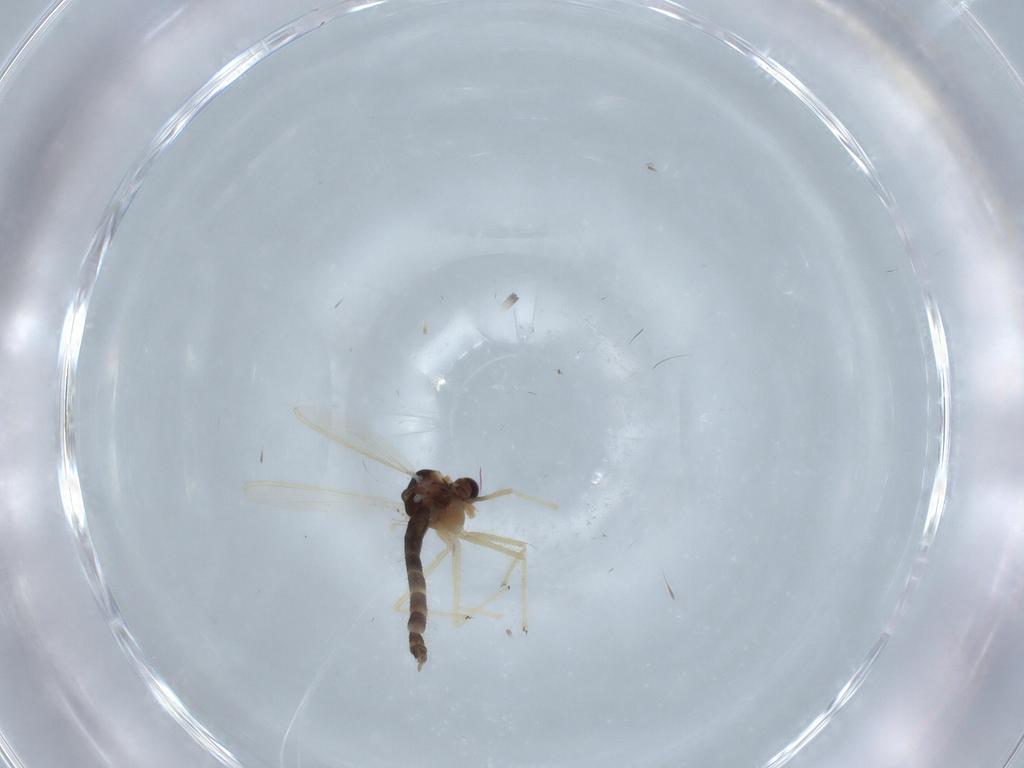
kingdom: Animalia
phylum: Arthropoda
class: Insecta
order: Diptera
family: Chironomidae
